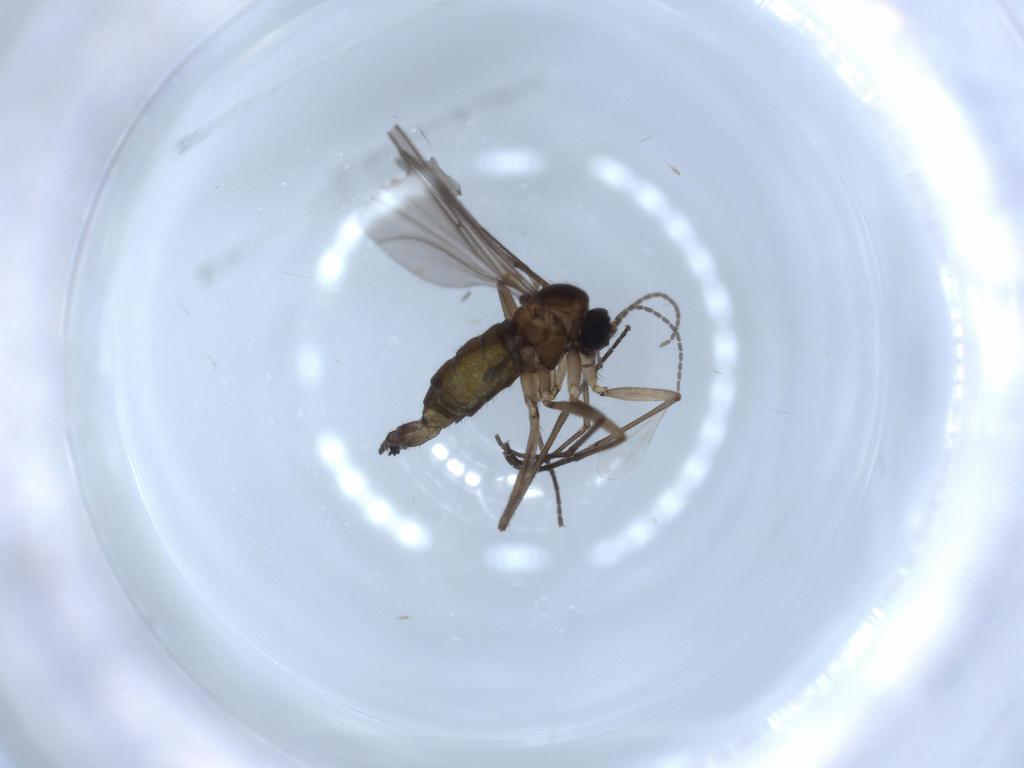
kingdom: Animalia
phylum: Arthropoda
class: Insecta
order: Diptera
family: Sciaridae
